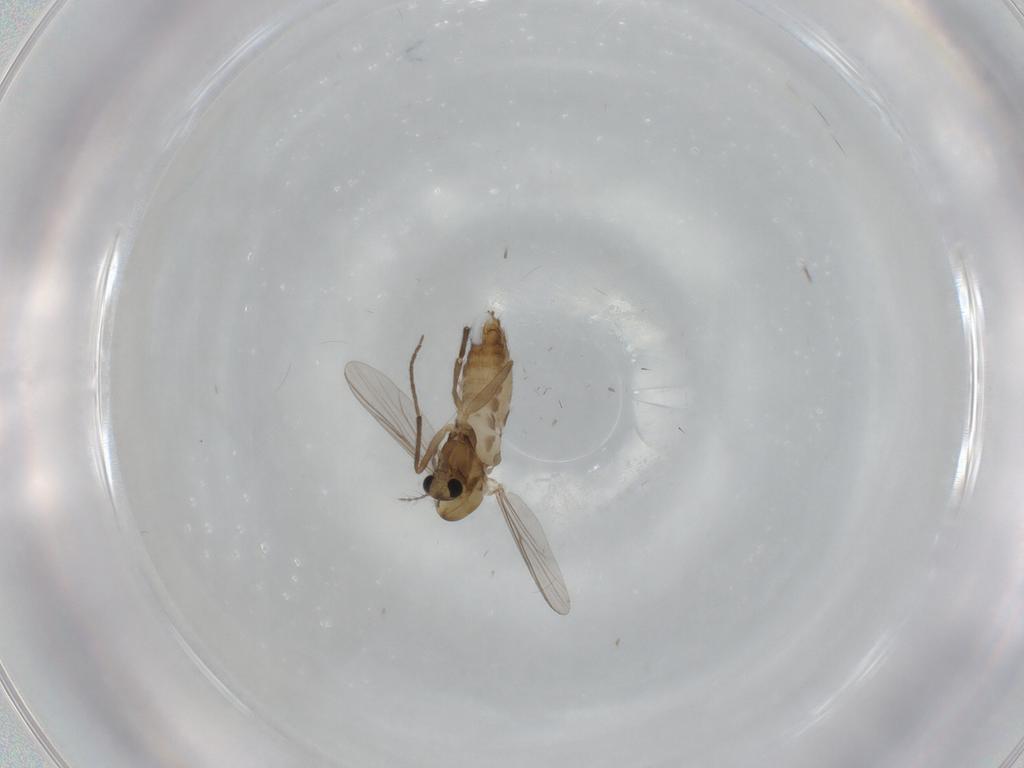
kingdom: Animalia
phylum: Arthropoda
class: Insecta
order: Diptera
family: Chironomidae
